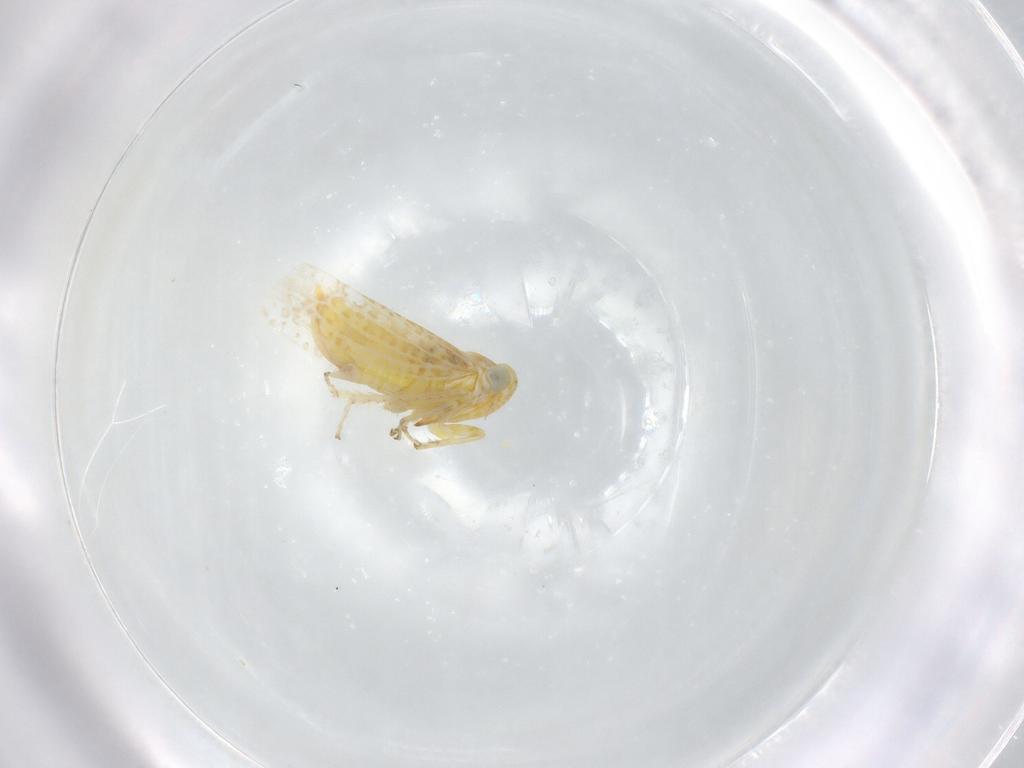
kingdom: Animalia
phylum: Arthropoda
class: Insecta
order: Hemiptera
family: Cicadellidae
